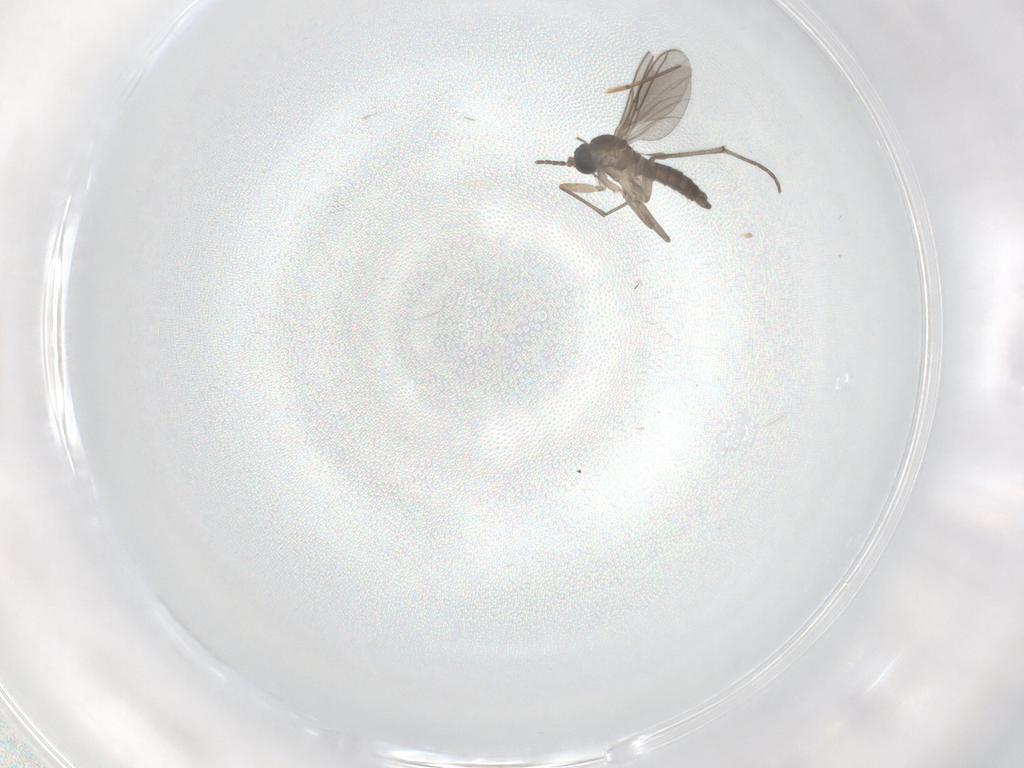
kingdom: Animalia
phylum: Arthropoda
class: Insecta
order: Diptera
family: Sciaridae
